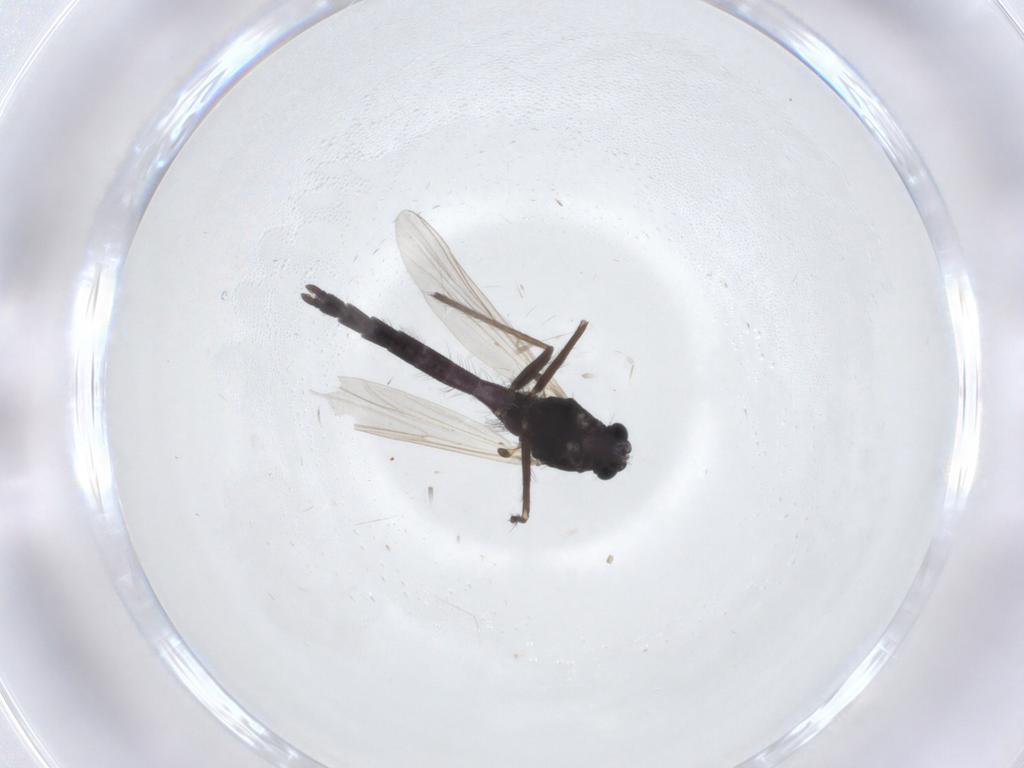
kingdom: Animalia
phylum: Arthropoda
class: Insecta
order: Diptera
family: Chironomidae
